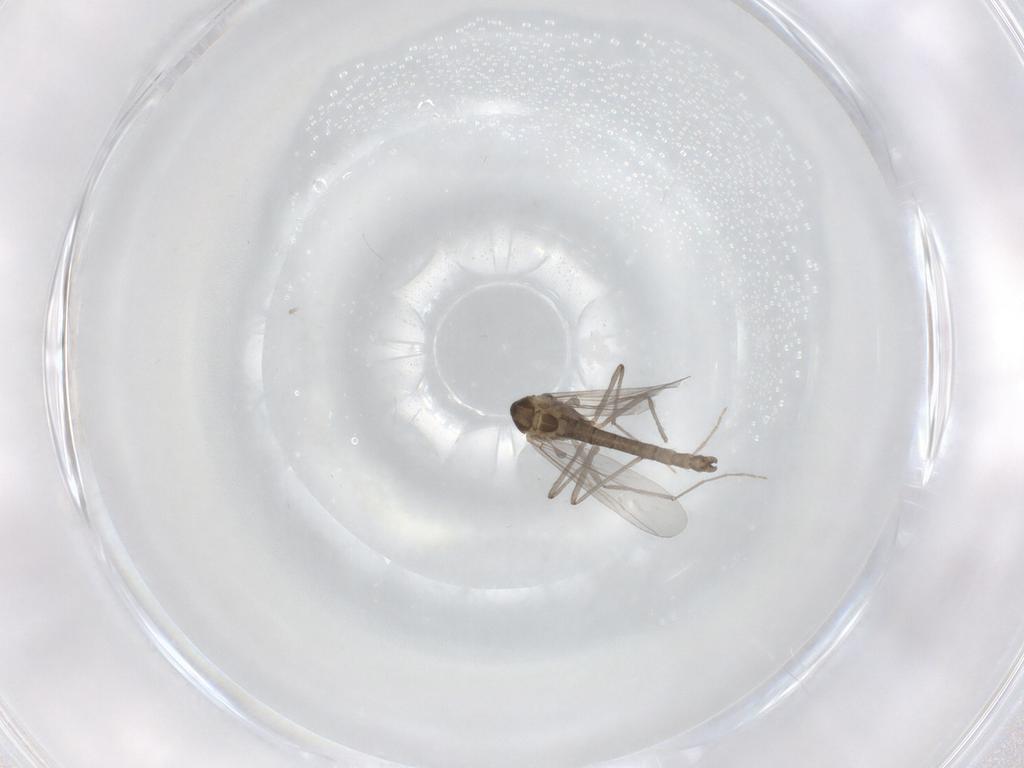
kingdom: Animalia
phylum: Arthropoda
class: Insecta
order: Diptera
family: Chironomidae
